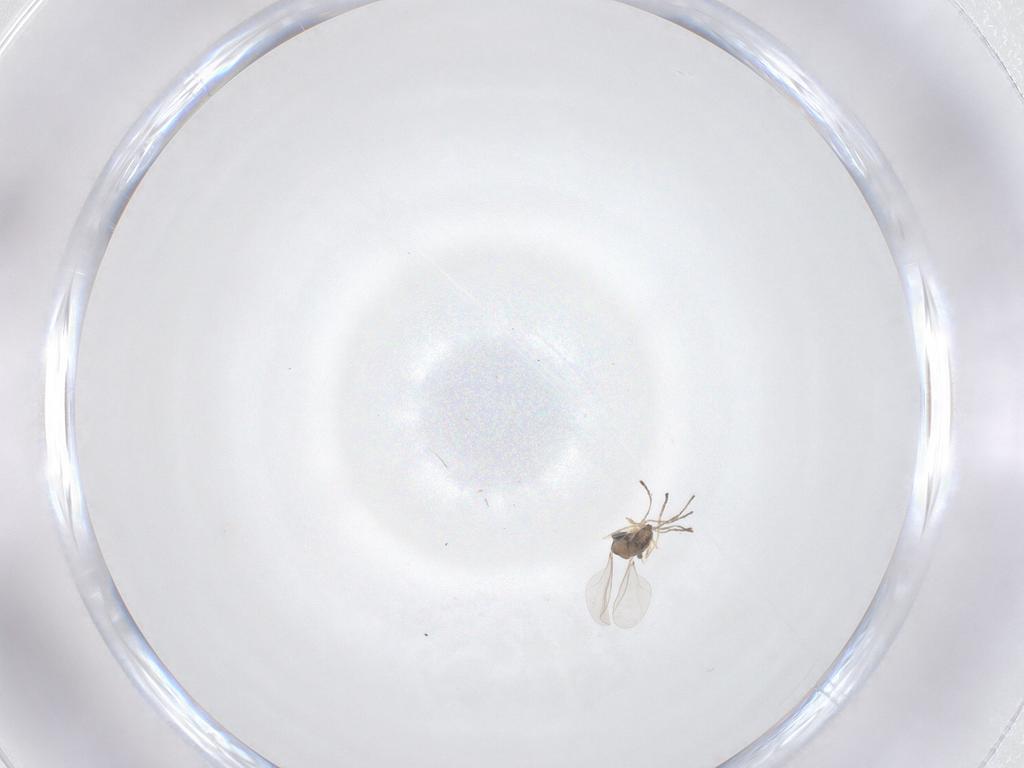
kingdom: Animalia
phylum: Arthropoda
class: Insecta
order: Diptera
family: Cecidomyiidae
